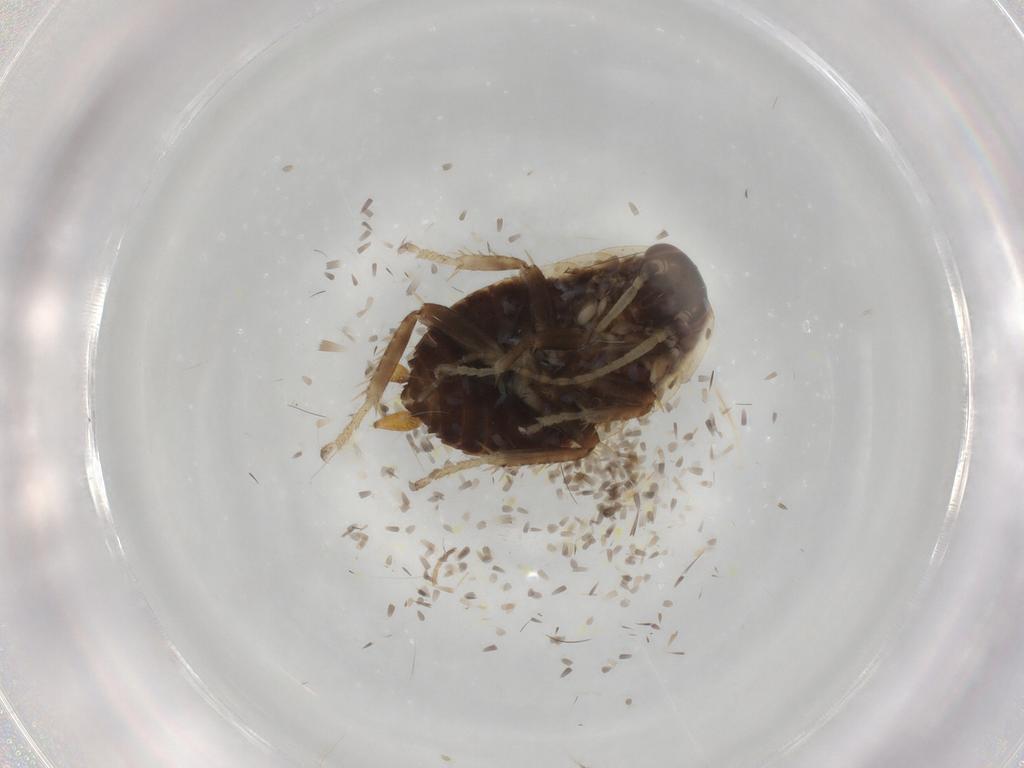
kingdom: Animalia
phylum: Arthropoda
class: Insecta
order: Blattodea
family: Ectobiidae
